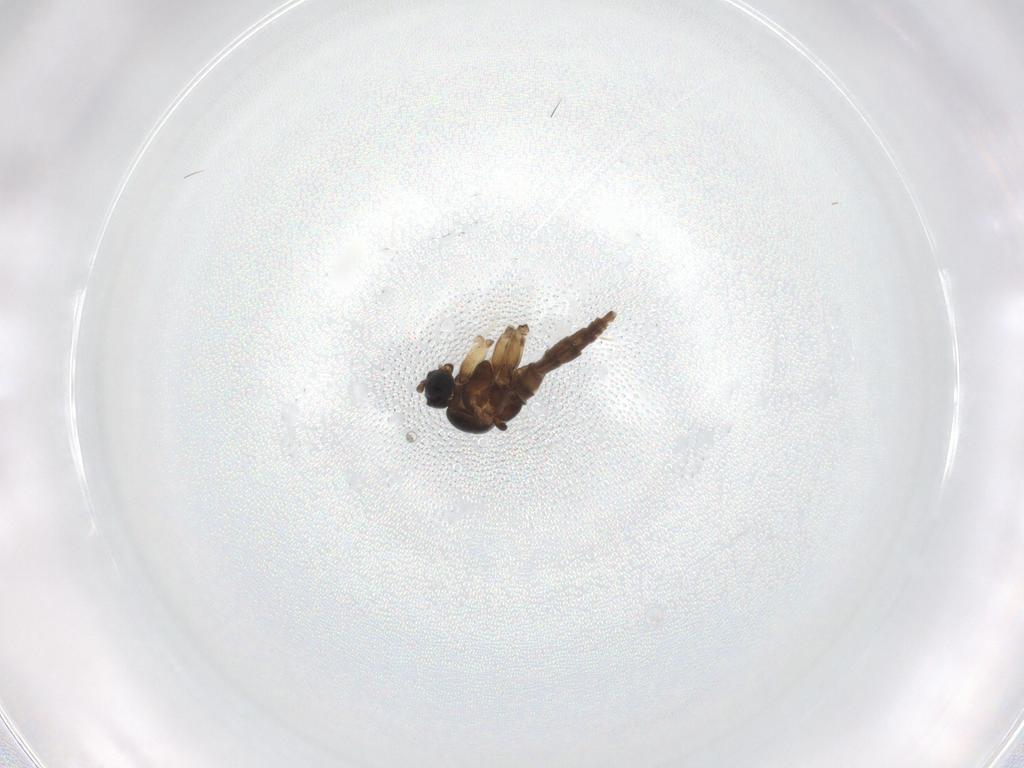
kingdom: Animalia
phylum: Arthropoda
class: Insecta
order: Diptera
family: Sciaridae
